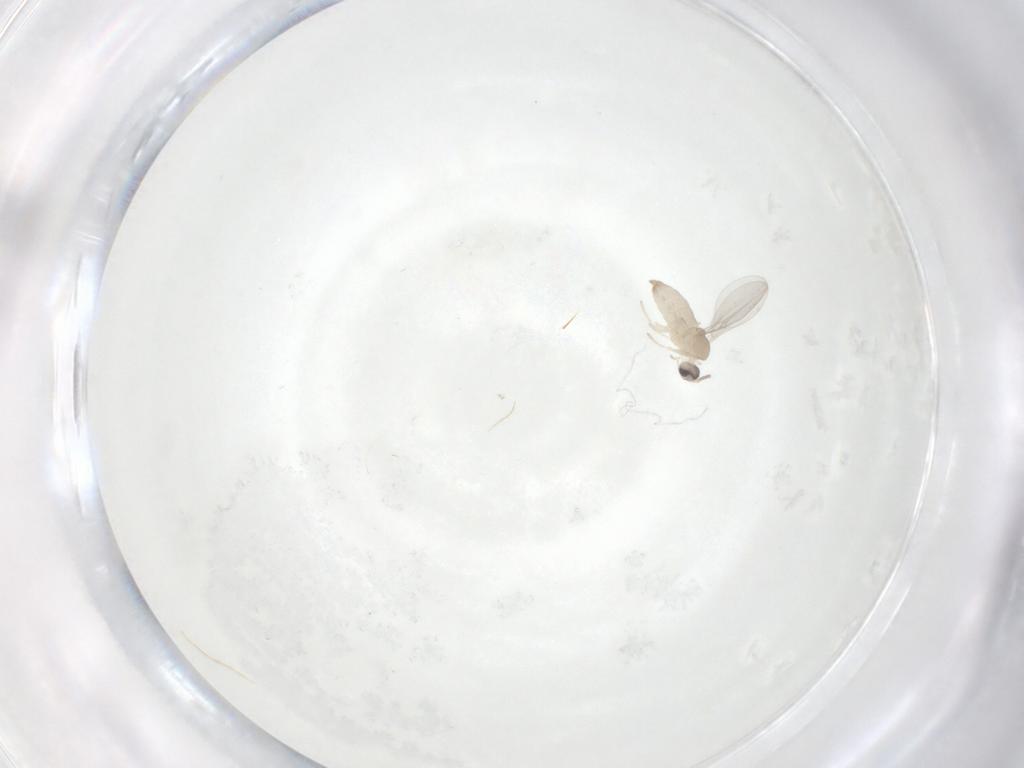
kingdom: Animalia
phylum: Arthropoda
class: Insecta
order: Diptera
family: Cecidomyiidae
